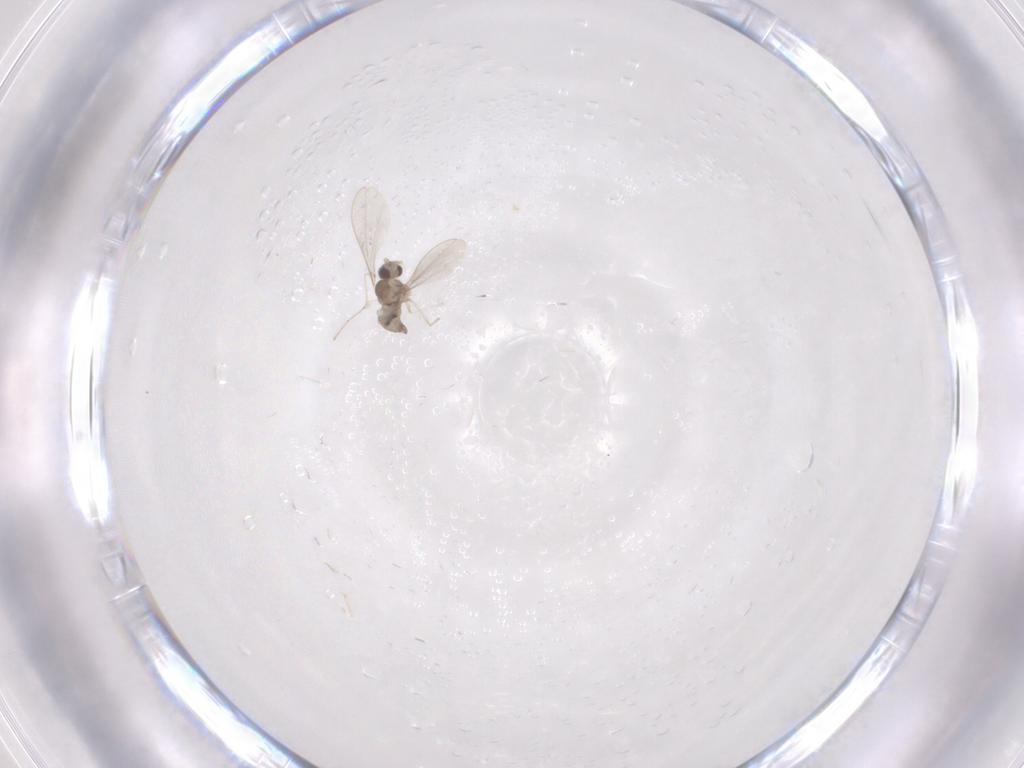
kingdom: Animalia
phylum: Arthropoda
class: Insecta
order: Diptera
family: Cecidomyiidae
